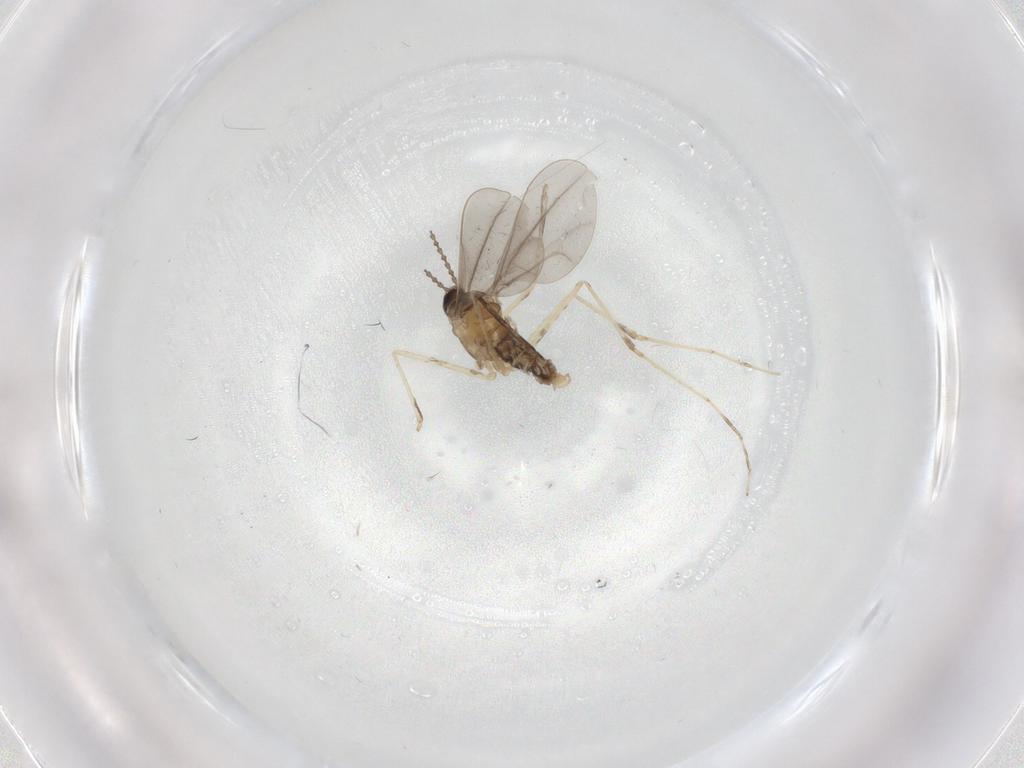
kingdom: Animalia
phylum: Arthropoda
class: Insecta
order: Diptera
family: Cecidomyiidae
